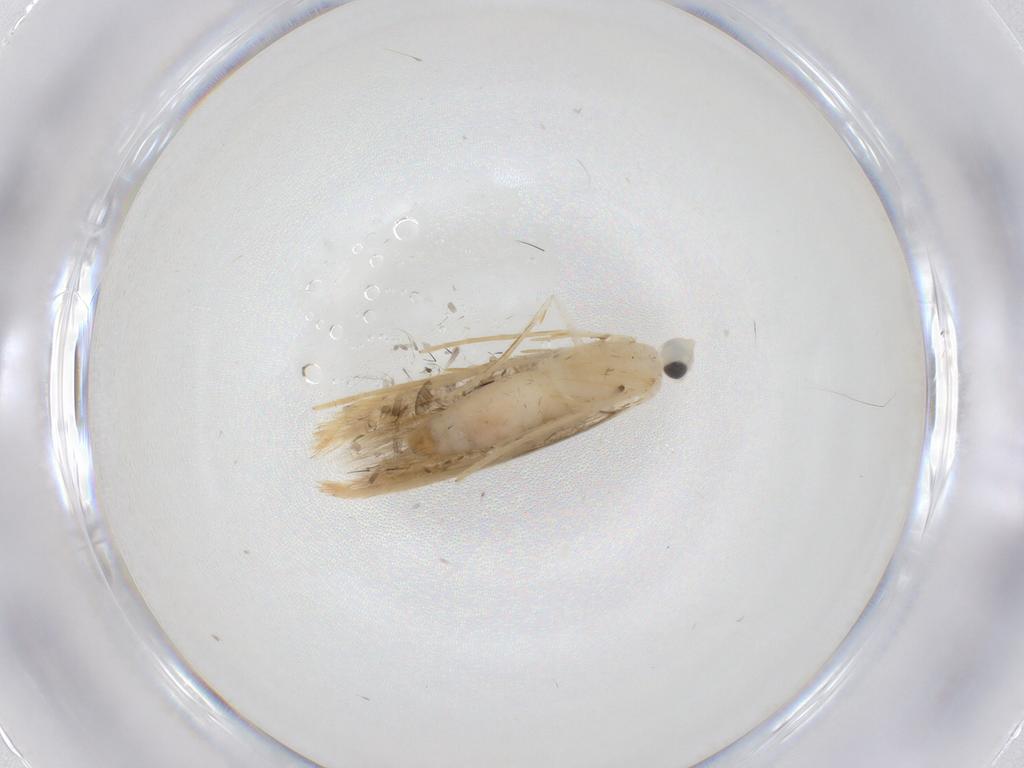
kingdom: Animalia
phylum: Arthropoda
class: Insecta
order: Lepidoptera
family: Tineidae
